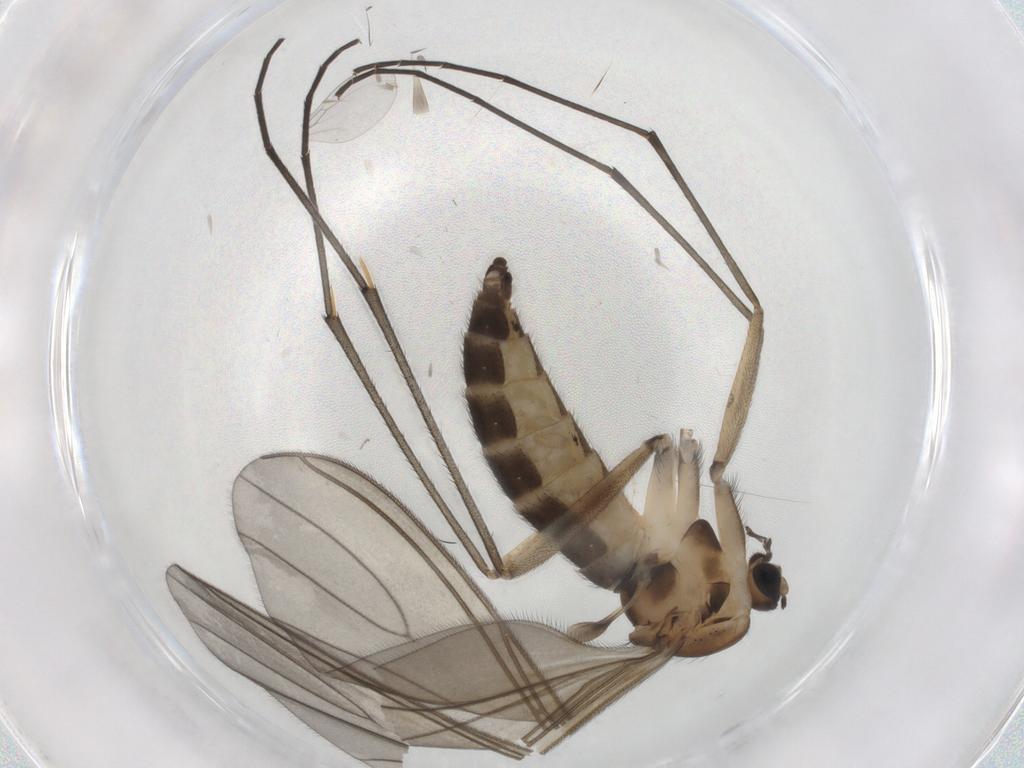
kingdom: Animalia
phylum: Arthropoda
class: Insecta
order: Diptera
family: Sciaridae
